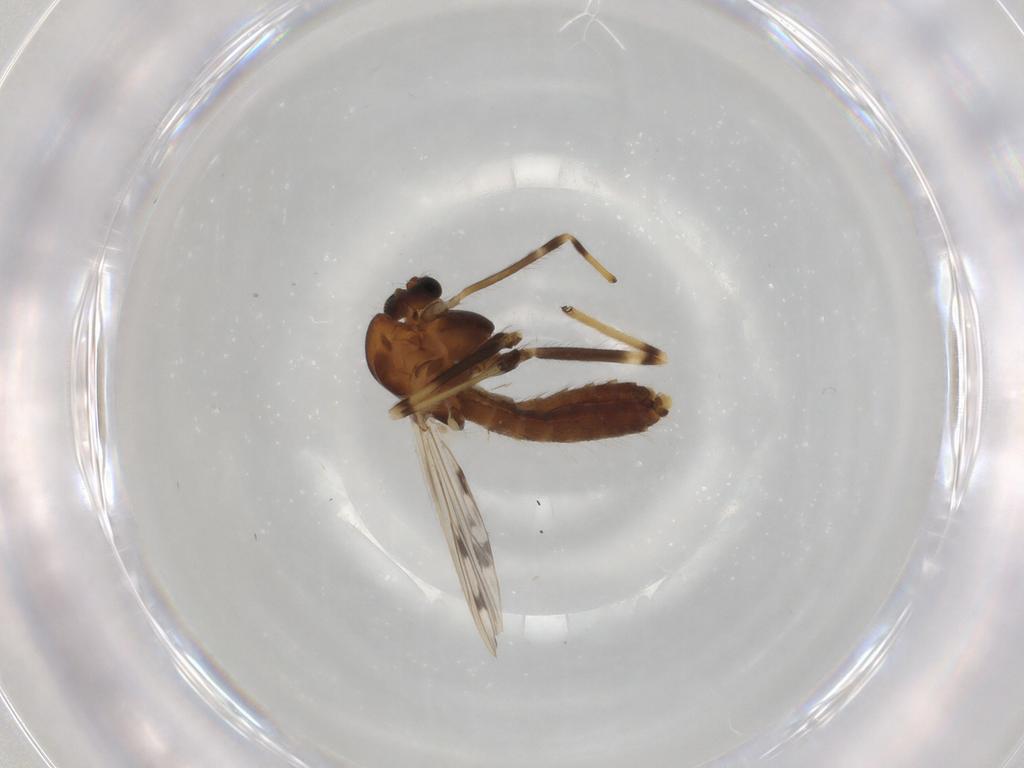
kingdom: Animalia
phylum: Arthropoda
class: Insecta
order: Diptera
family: Chironomidae
